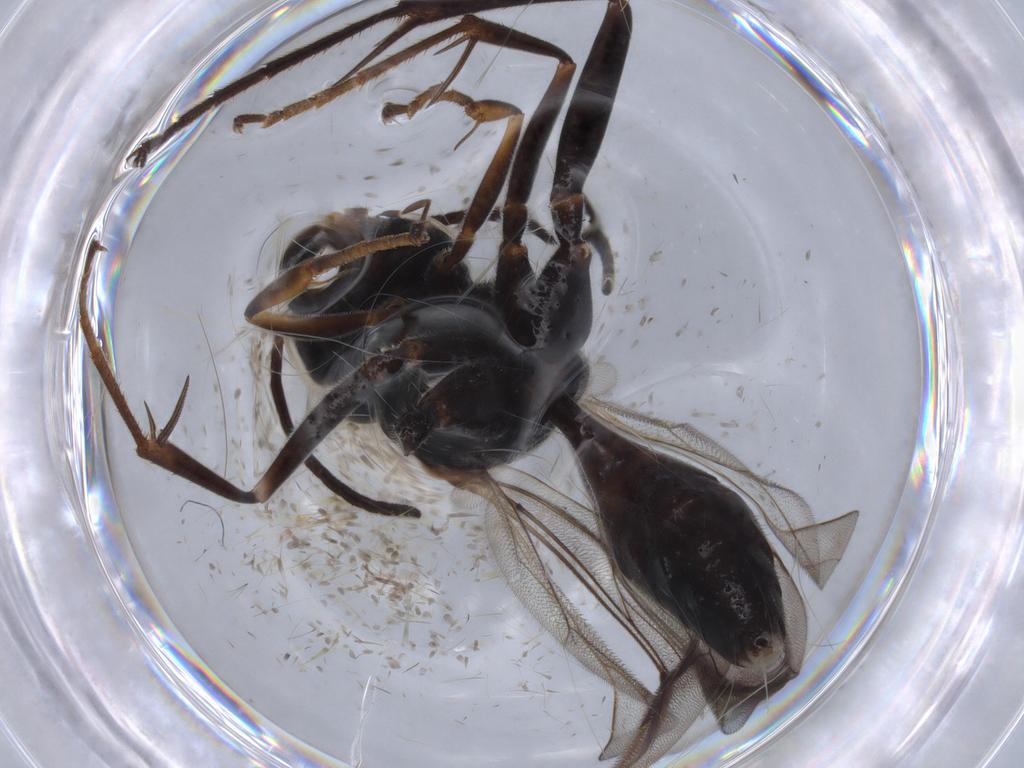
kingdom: Animalia
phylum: Arthropoda
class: Insecta
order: Hymenoptera
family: Pompilidae
